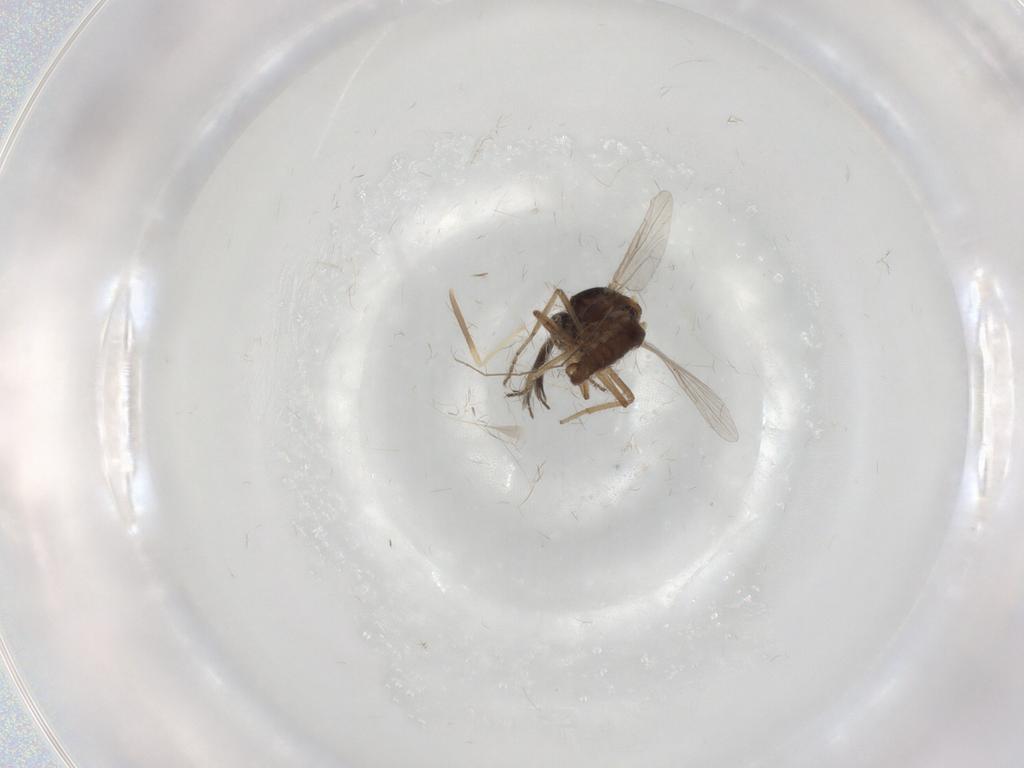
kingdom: Animalia
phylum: Arthropoda
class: Insecta
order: Diptera
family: Ceratopogonidae
